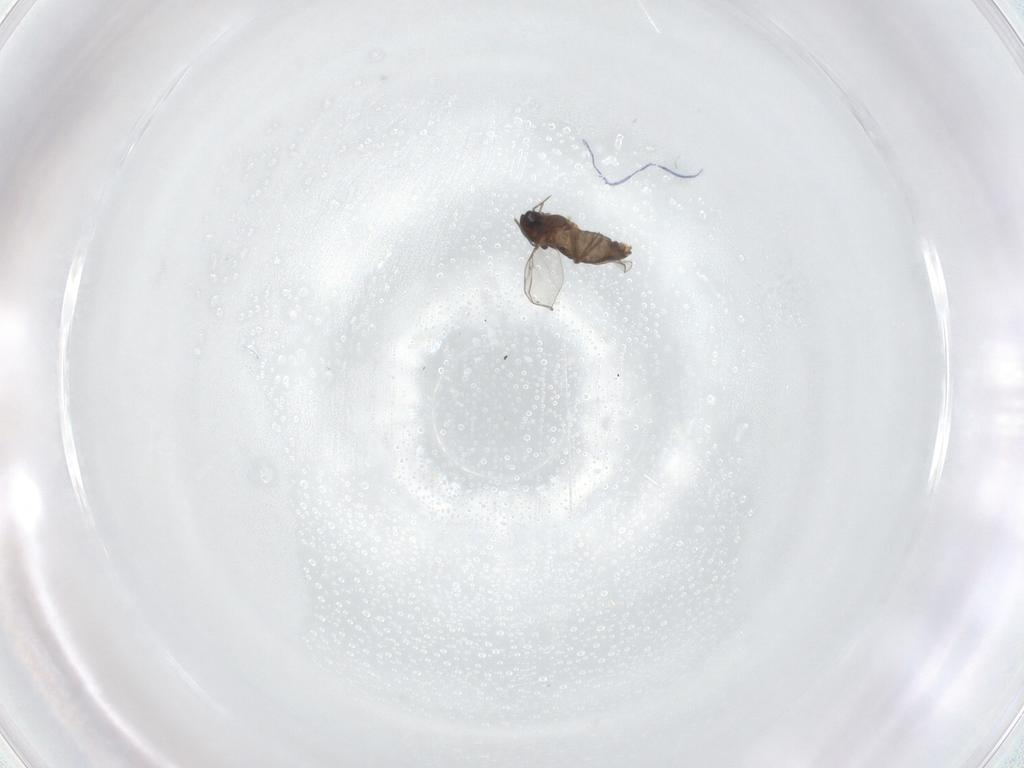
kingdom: Animalia
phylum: Arthropoda
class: Insecta
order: Diptera
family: Chironomidae
